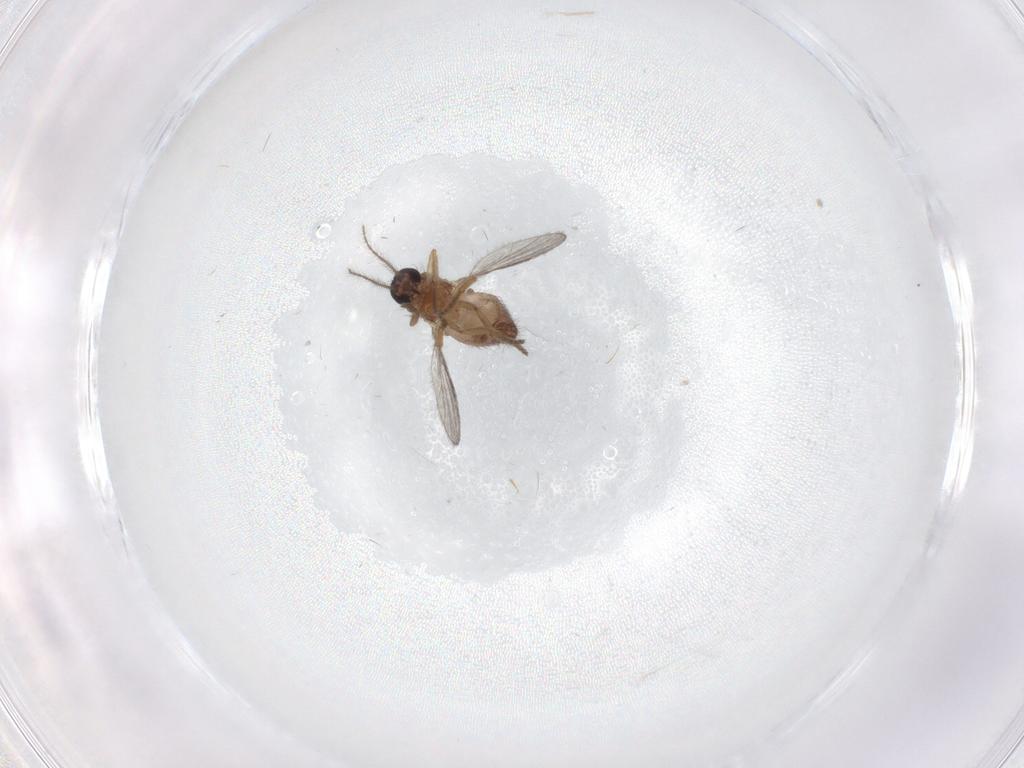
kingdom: Animalia
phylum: Arthropoda
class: Insecta
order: Diptera
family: Ceratopogonidae
